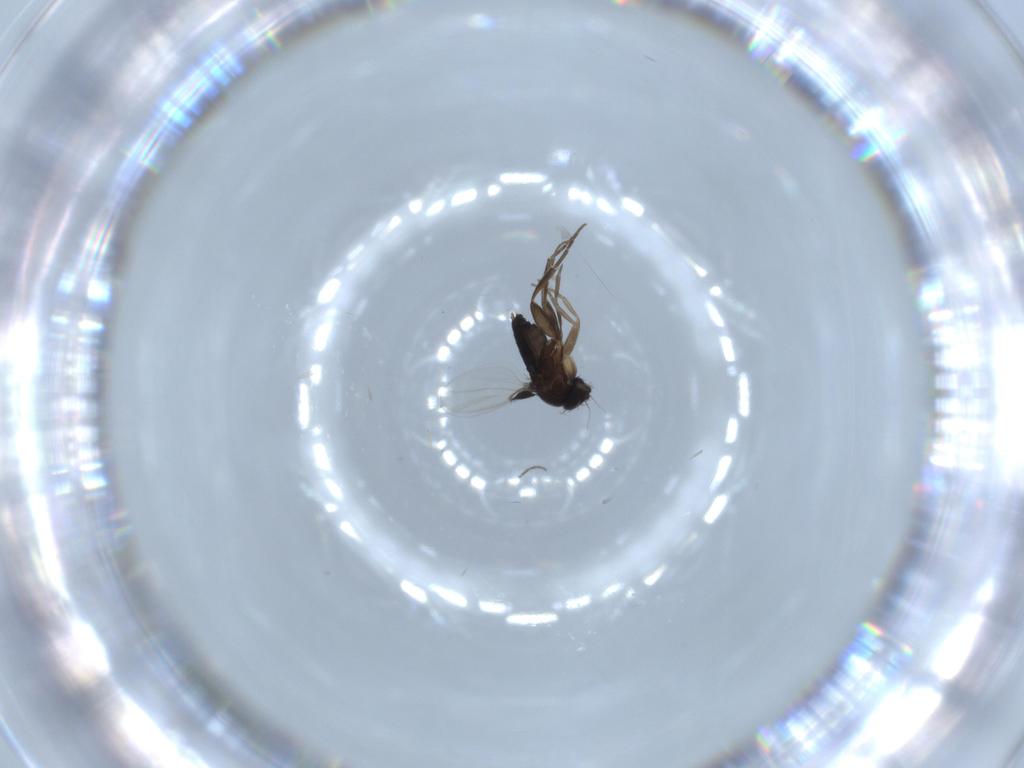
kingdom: Animalia
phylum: Arthropoda
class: Insecta
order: Diptera
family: Phoridae
